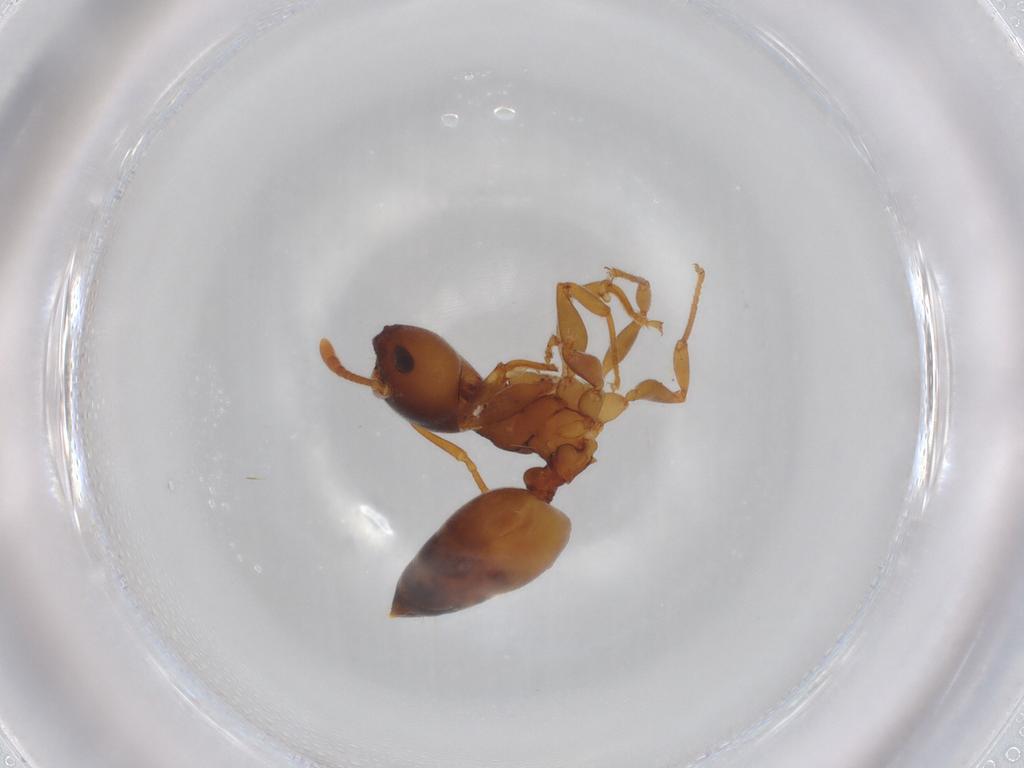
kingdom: Animalia
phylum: Arthropoda
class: Insecta
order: Hymenoptera
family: Formicidae
